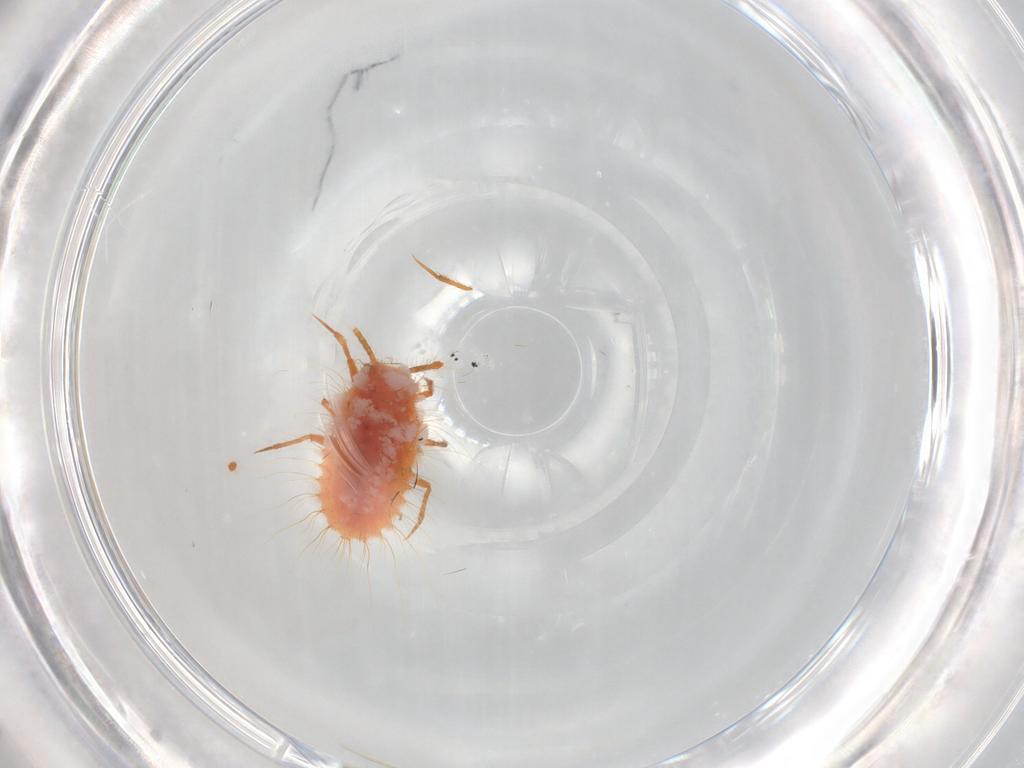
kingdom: Animalia
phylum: Arthropoda
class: Insecta
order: Hemiptera
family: Coccoidea_incertae_sedis
